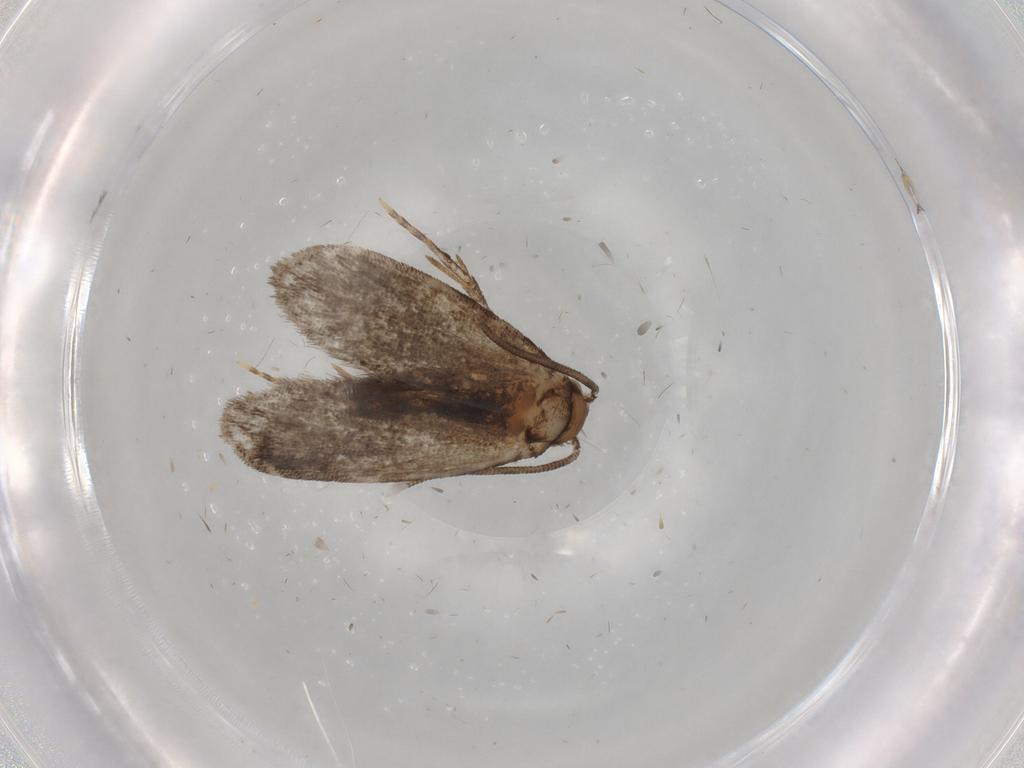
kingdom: Animalia
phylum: Arthropoda
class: Insecta
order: Lepidoptera
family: Dryadaulidae
